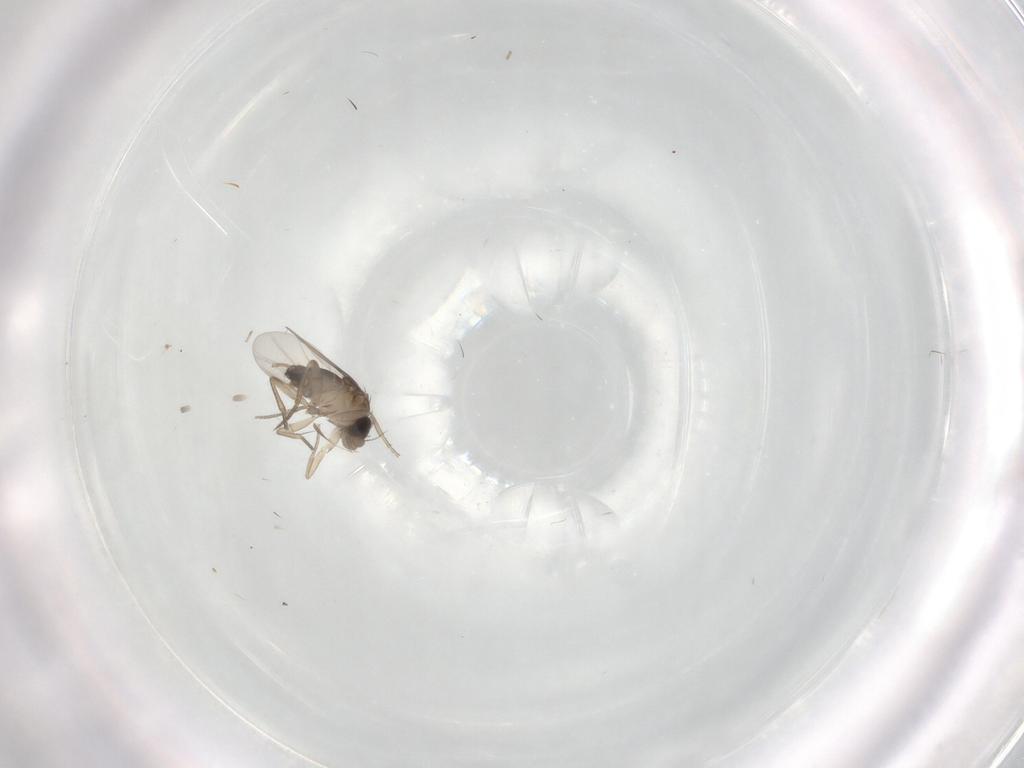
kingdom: Animalia
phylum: Arthropoda
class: Insecta
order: Diptera
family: Phoridae
